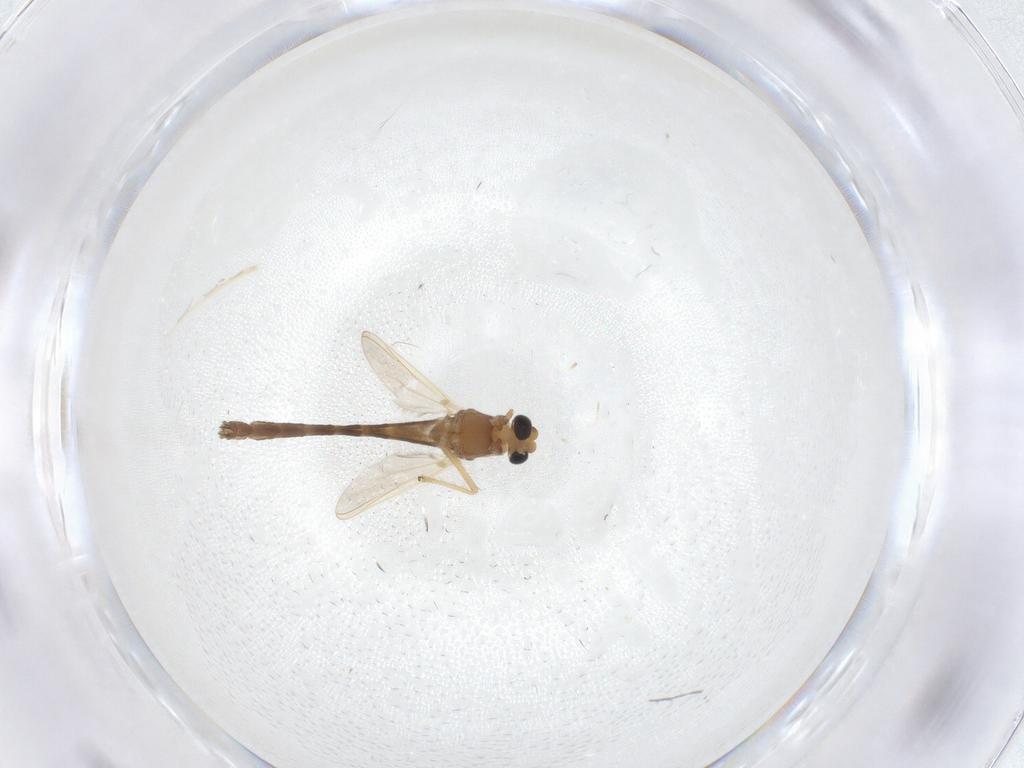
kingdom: Animalia
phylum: Arthropoda
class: Insecta
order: Diptera
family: Chironomidae
